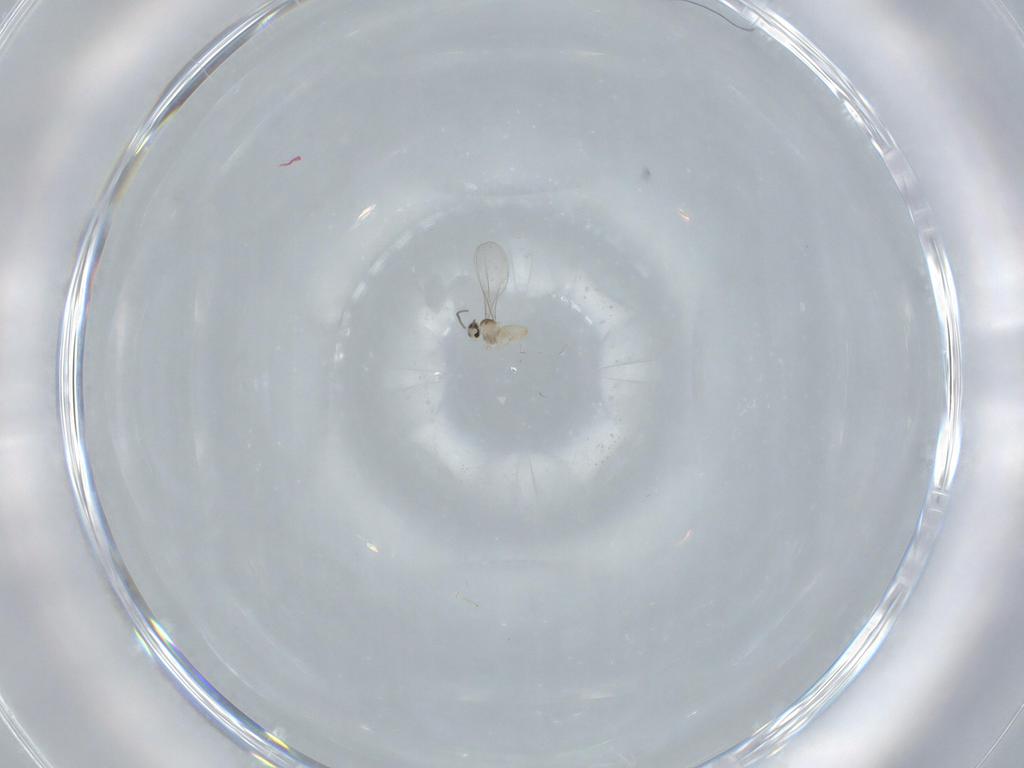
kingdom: Animalia
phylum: Arthropoda
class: Insecta
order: Diptera
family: Cecidomyiidae
